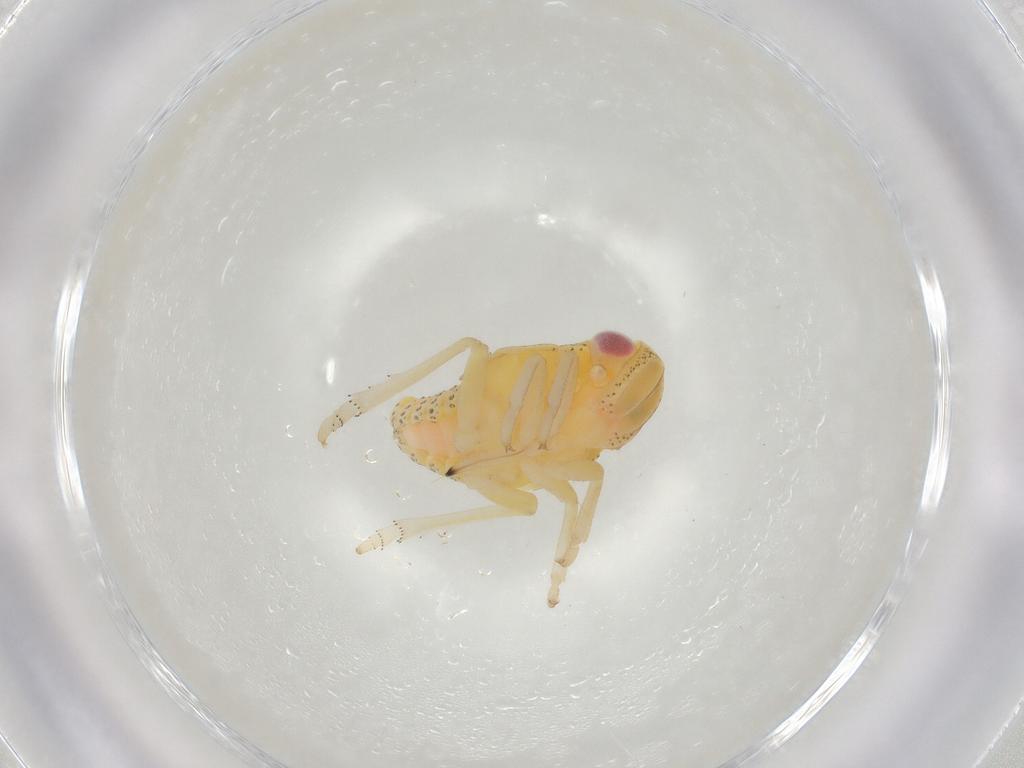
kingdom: Animalia
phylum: Arthropoda
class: Insecta
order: Hemiptera
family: Tropiduchidae
